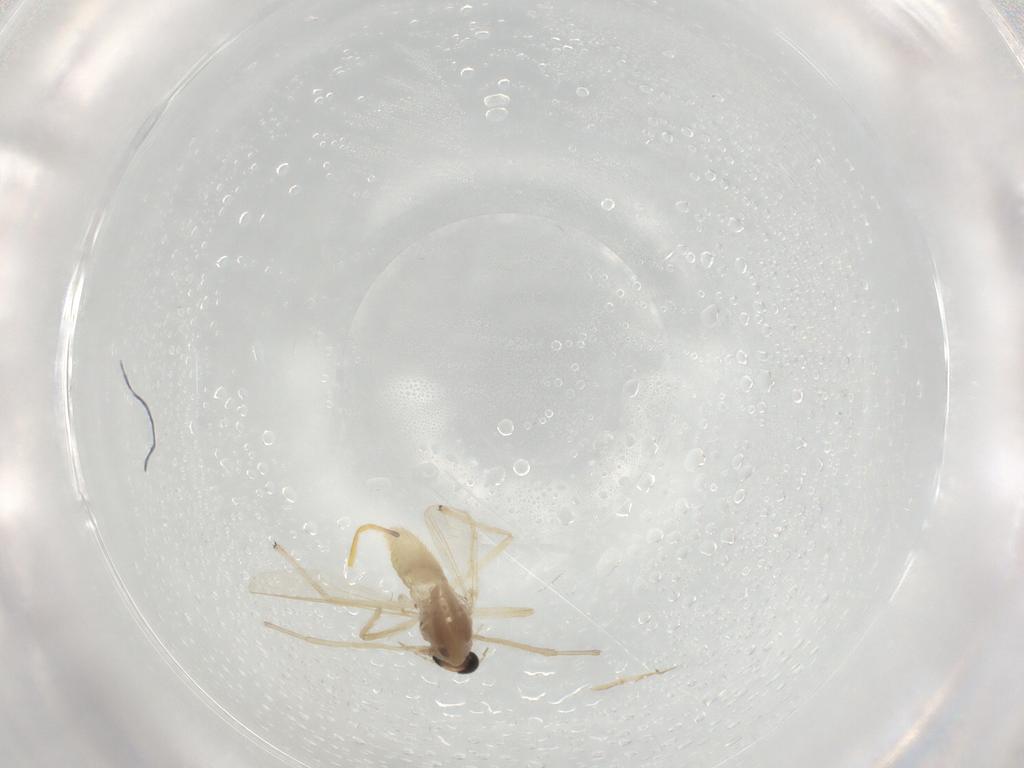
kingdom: Animalia
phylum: Arthropoda
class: Insecta
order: Diptera
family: Chironomidae
